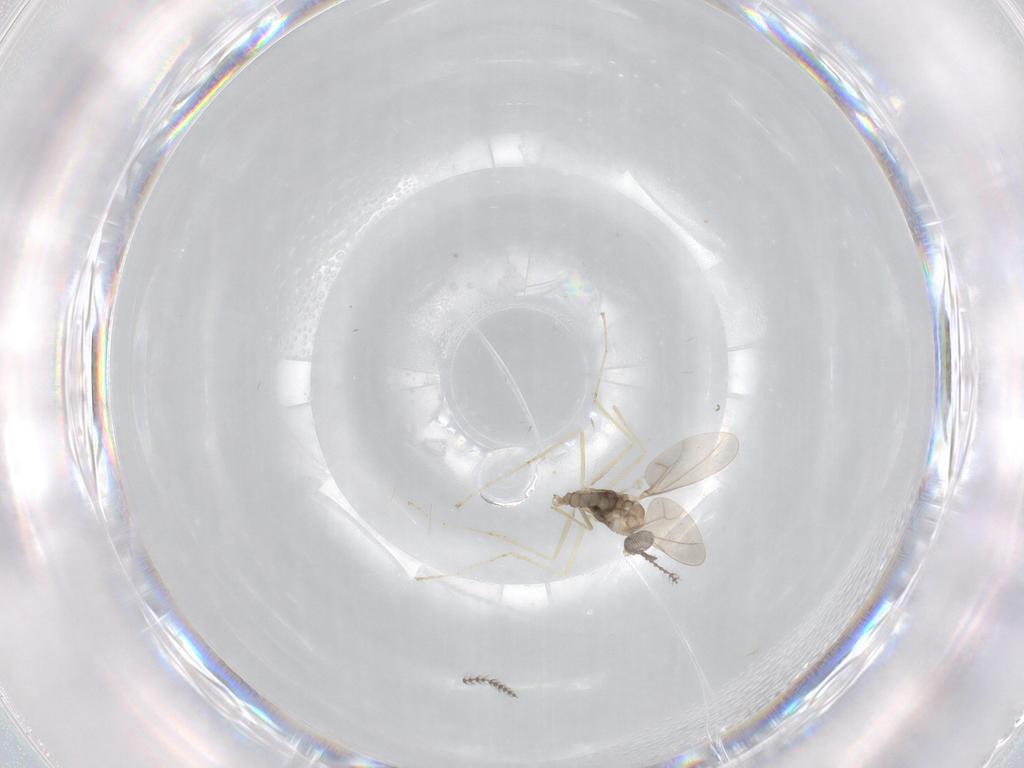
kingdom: Animalia
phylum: Arthropoda
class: Insecta
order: Diptera
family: Cecidomyiidae
